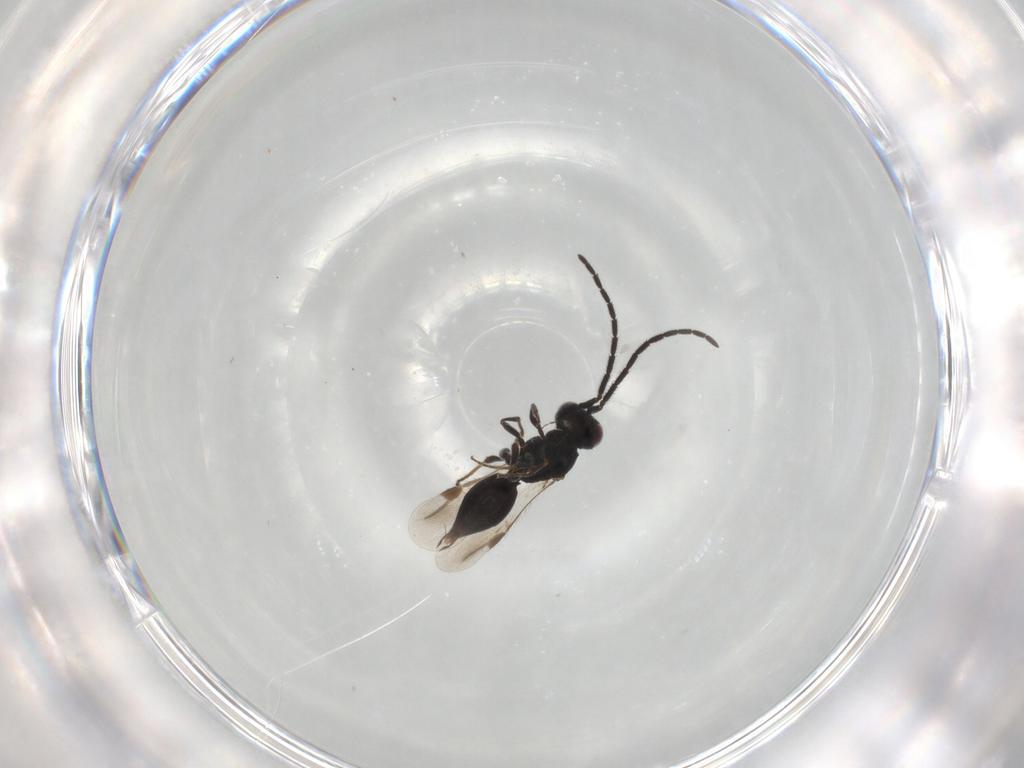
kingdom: Animalia
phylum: Arthropoda
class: Insecta
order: Hymenoptera
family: Megaspilidae
